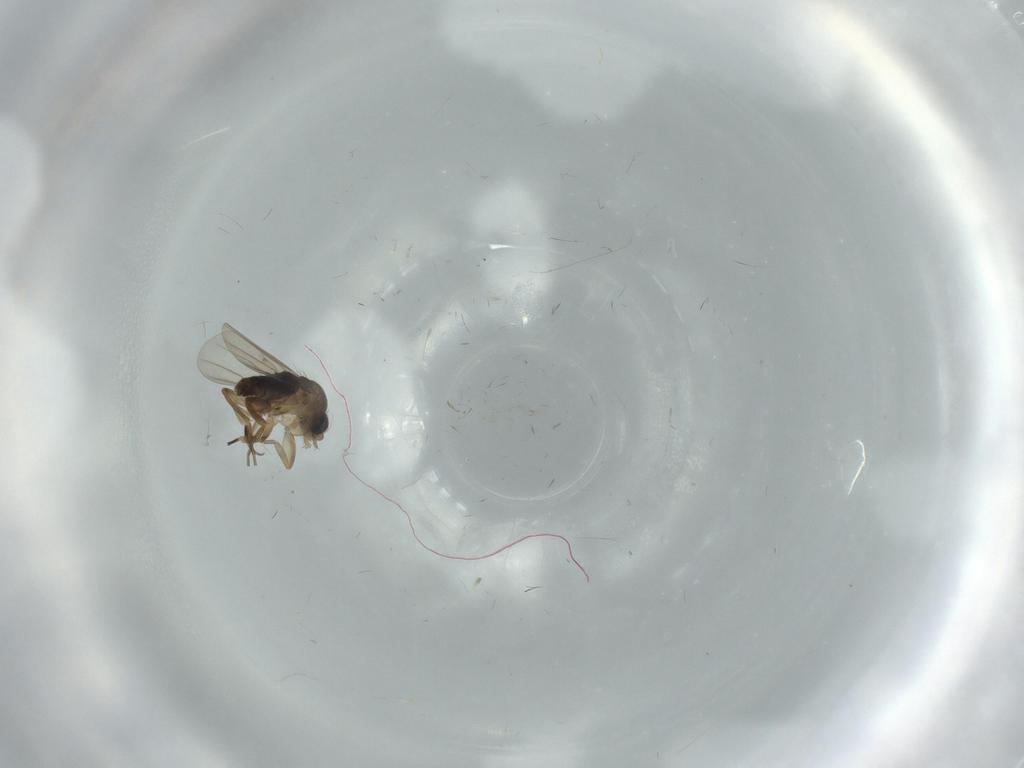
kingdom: Animalia
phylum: Arthropoda
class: Insecta
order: Diptera
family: Phoridae
